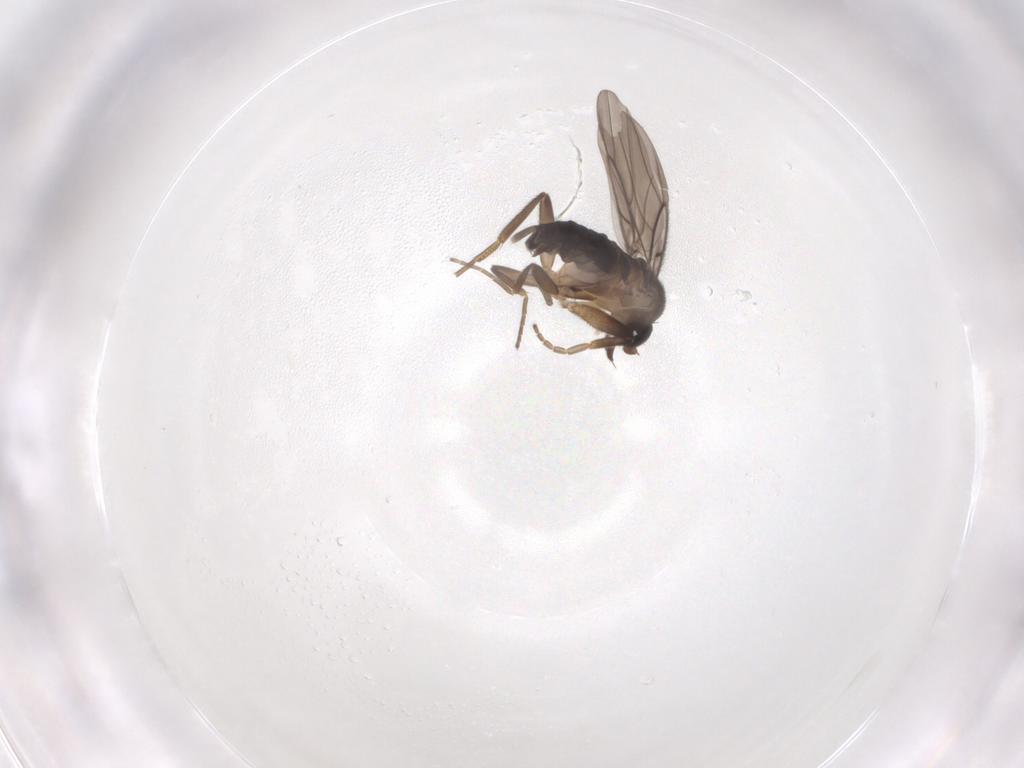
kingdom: Animalia
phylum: Arthropoda
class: Insecta
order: Diptera
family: Phoridae
